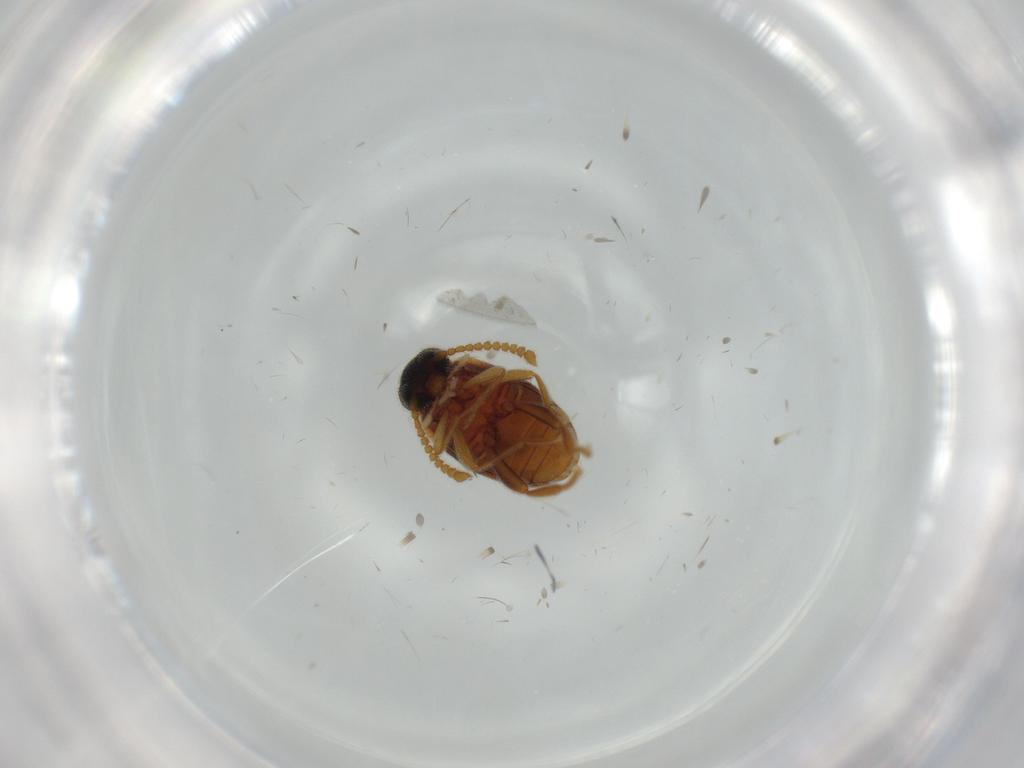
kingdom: Animalia
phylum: Arthropoda
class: Insecta
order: Coleoptera
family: Aderidae
